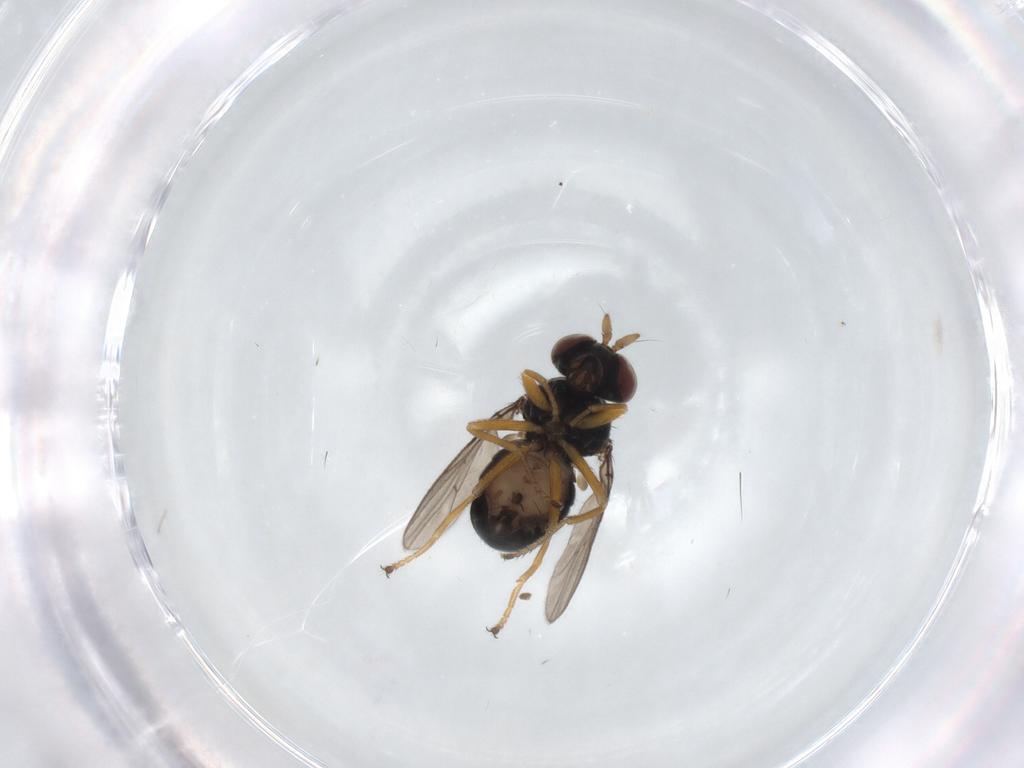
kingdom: Animalia
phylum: Arthropoda
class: Insecta
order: Diptera
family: Ephydridae
